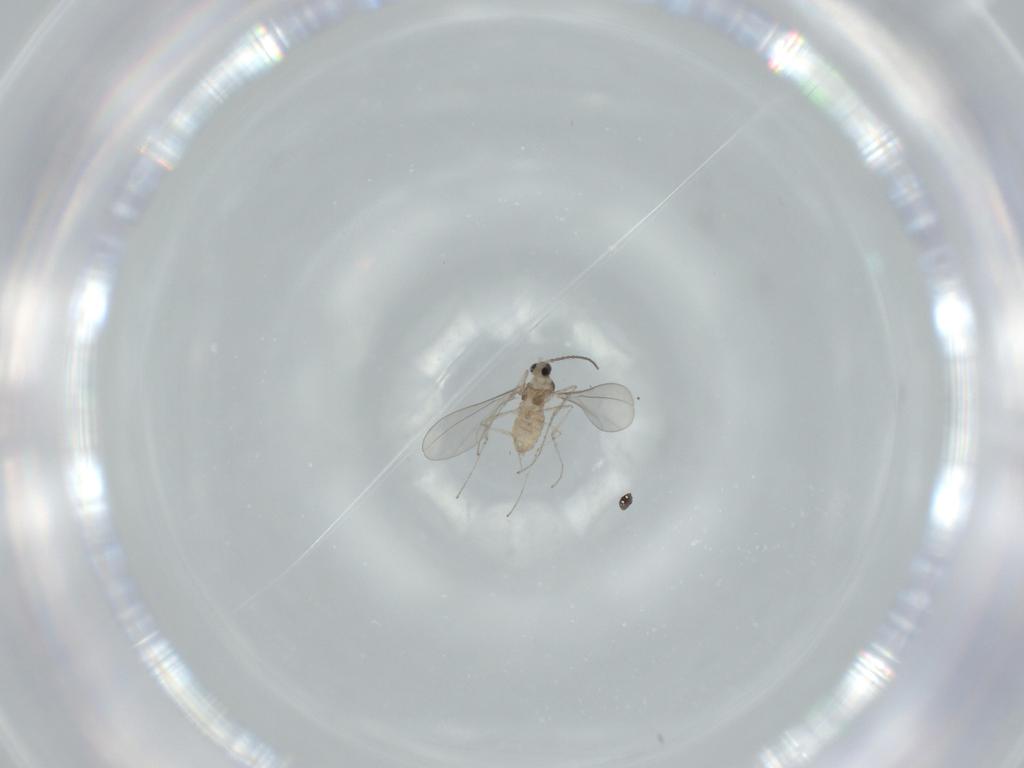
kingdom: Animalia
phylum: Arthropoda
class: Insecta
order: Diptera
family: Cecidomyiidae
